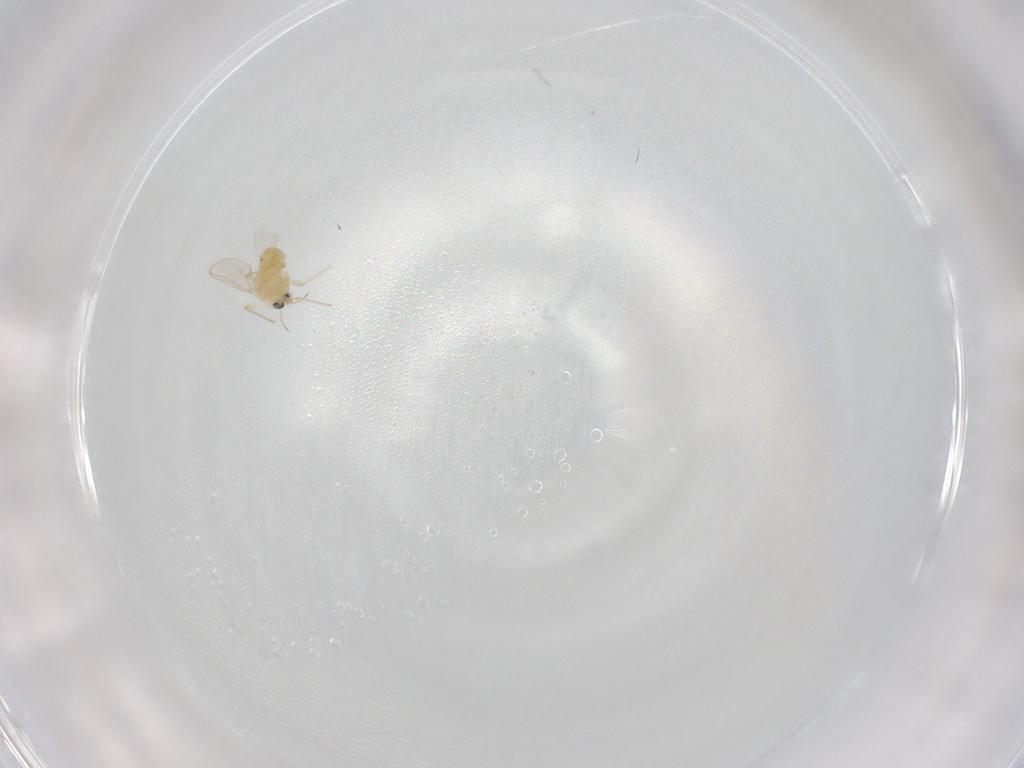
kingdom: Animalia
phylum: Arthropoda
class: Insecta
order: Diptera
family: Chironomidae
